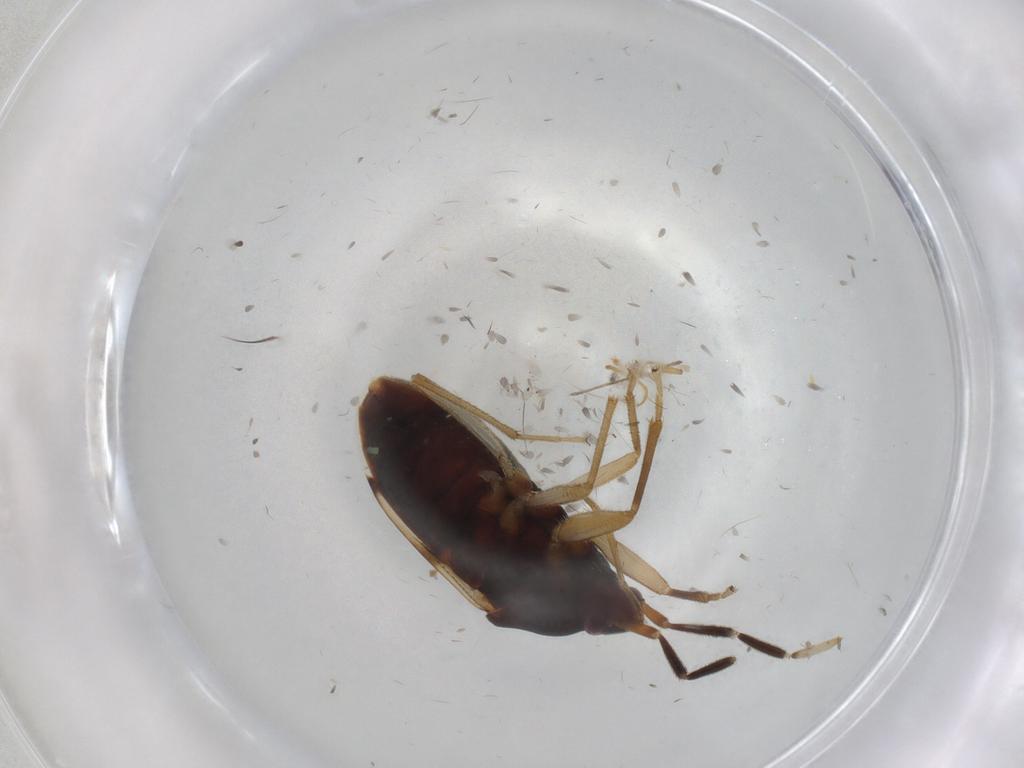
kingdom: Animalia
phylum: Arthropoda
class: Insecta
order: Hemiptera
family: Rhyparochromidae
